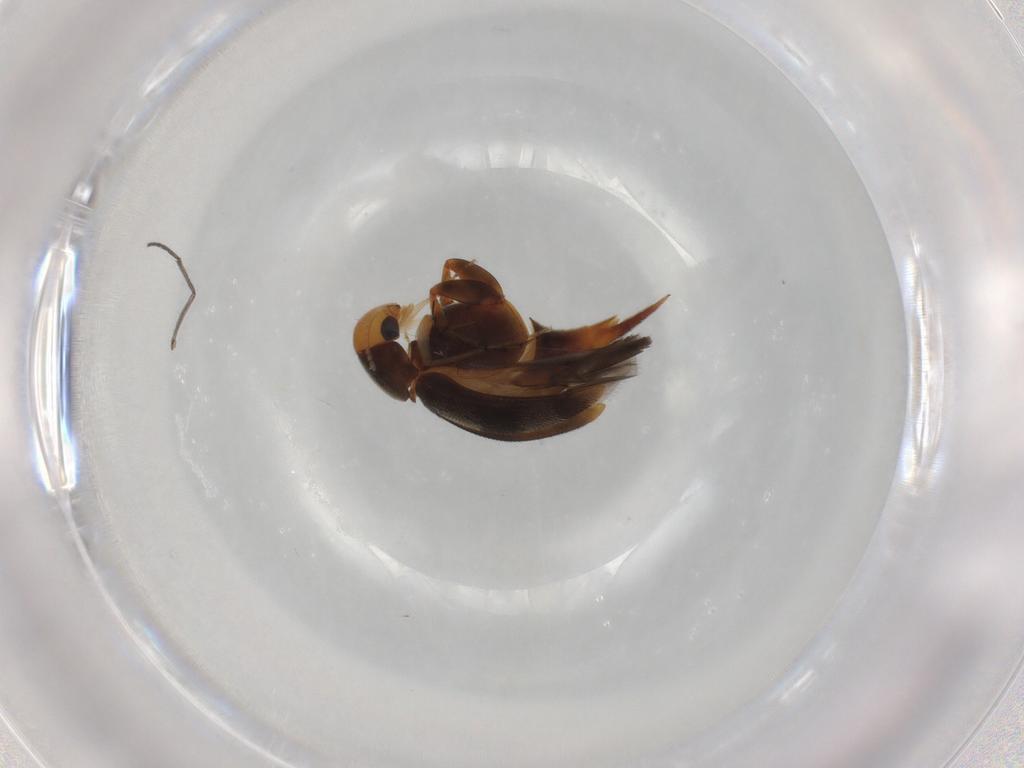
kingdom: Animalia
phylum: Arthropoda
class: Insecta
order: Coleoptera
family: Mordellidae
